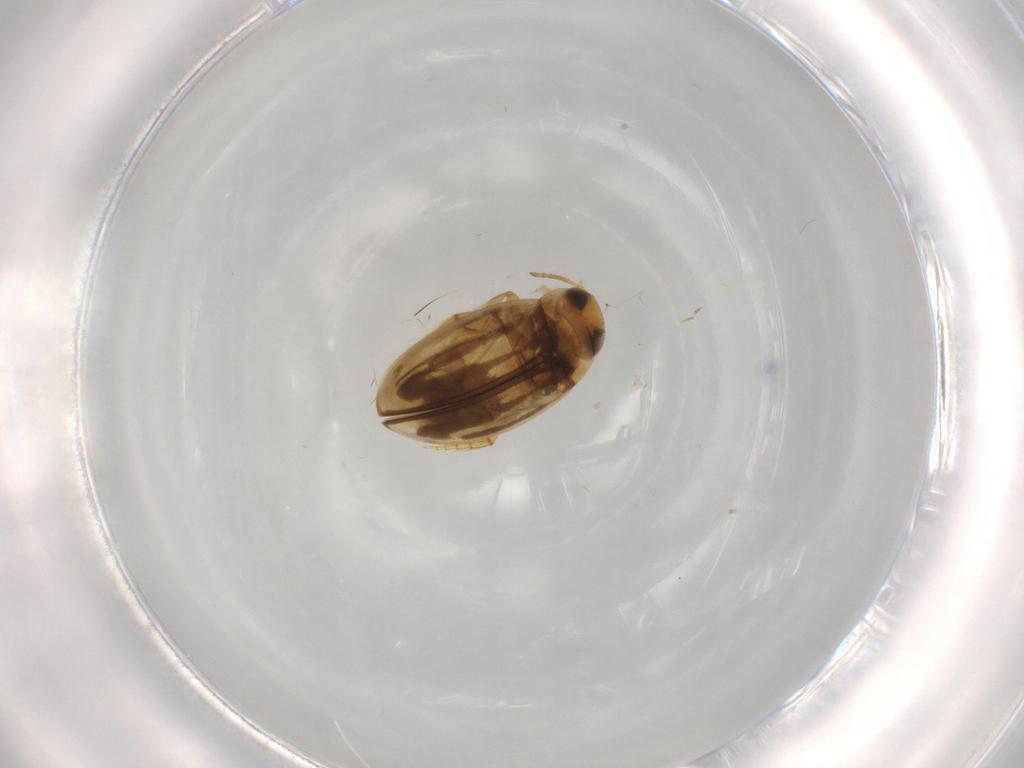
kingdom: Animalia
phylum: Arthropoda
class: Insecta
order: Coleoptera
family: Dytiscidae
